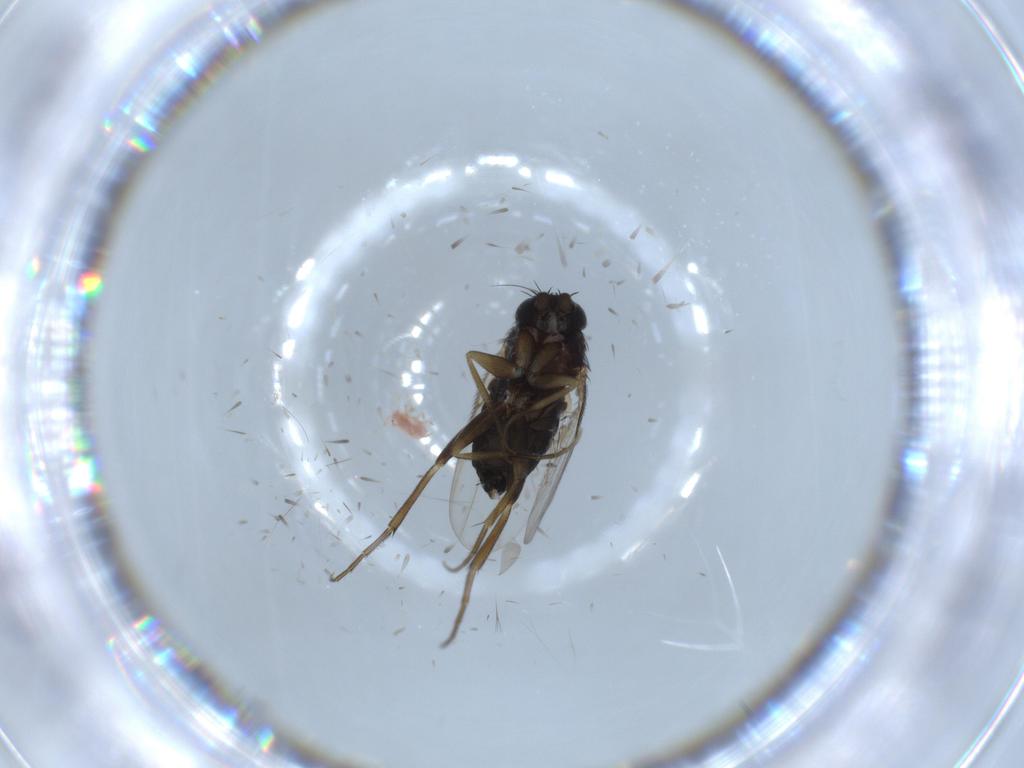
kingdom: Animalia
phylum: Arthropoda
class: Insecta
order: Diptera
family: Phoridae
